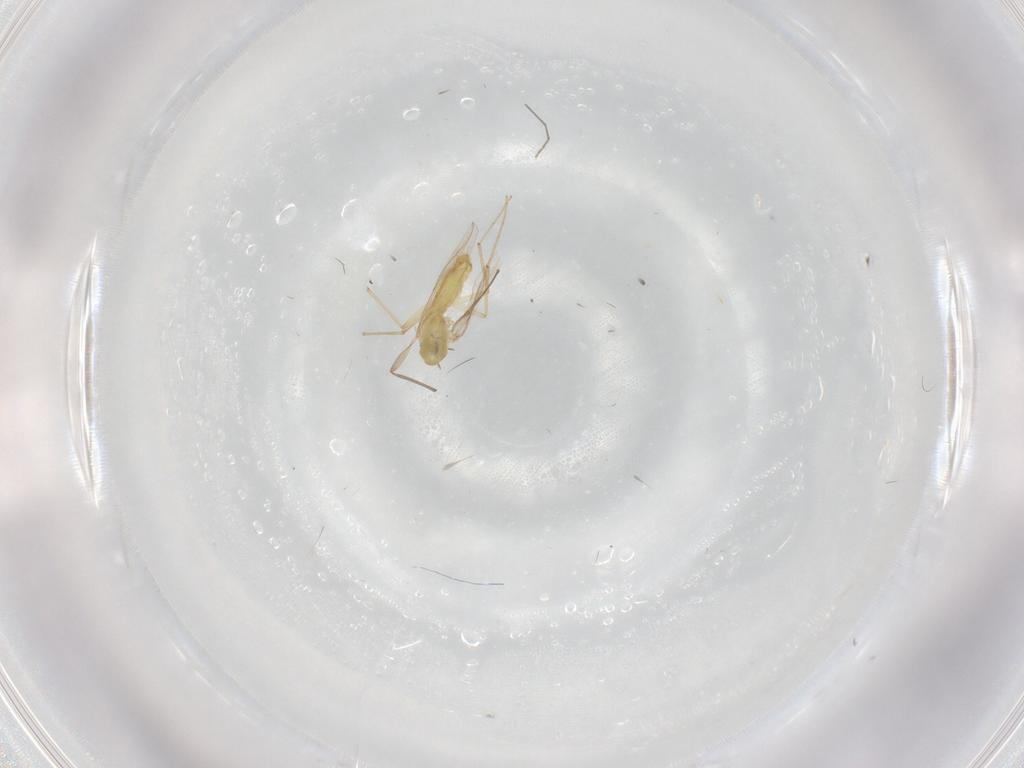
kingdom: Animalia
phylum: Arthropoda
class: Insecta
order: Diptera
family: Chironomidae
